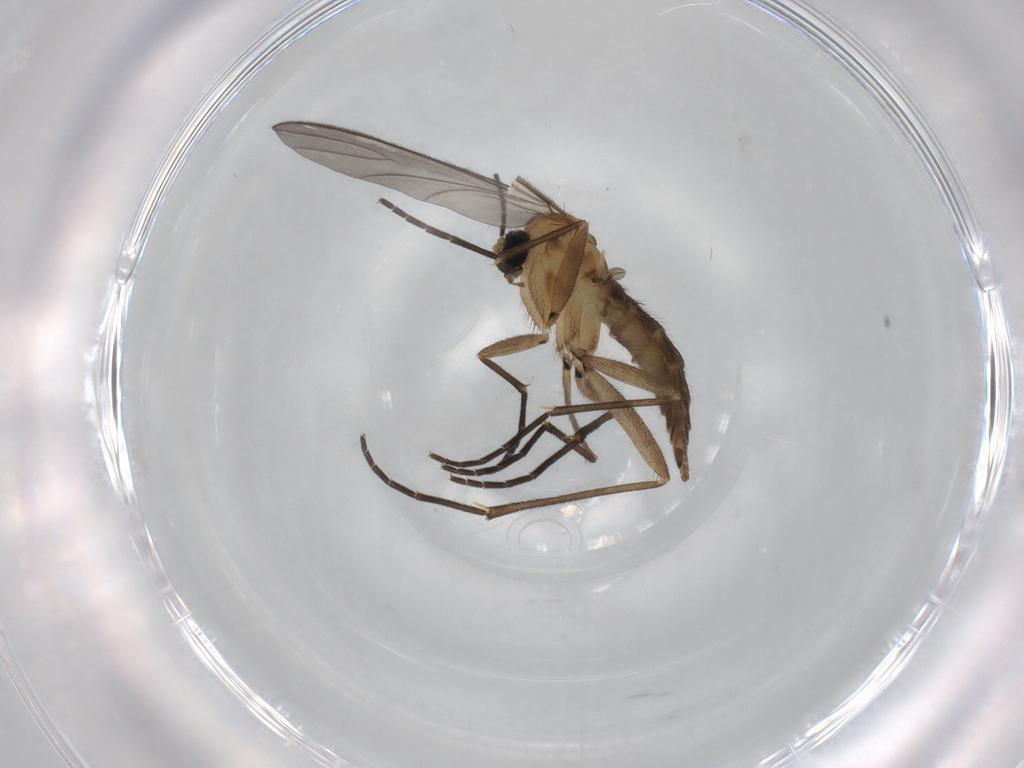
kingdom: Animalia
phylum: Arthropoda
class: Insecta
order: Diptera
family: Sciaridae
